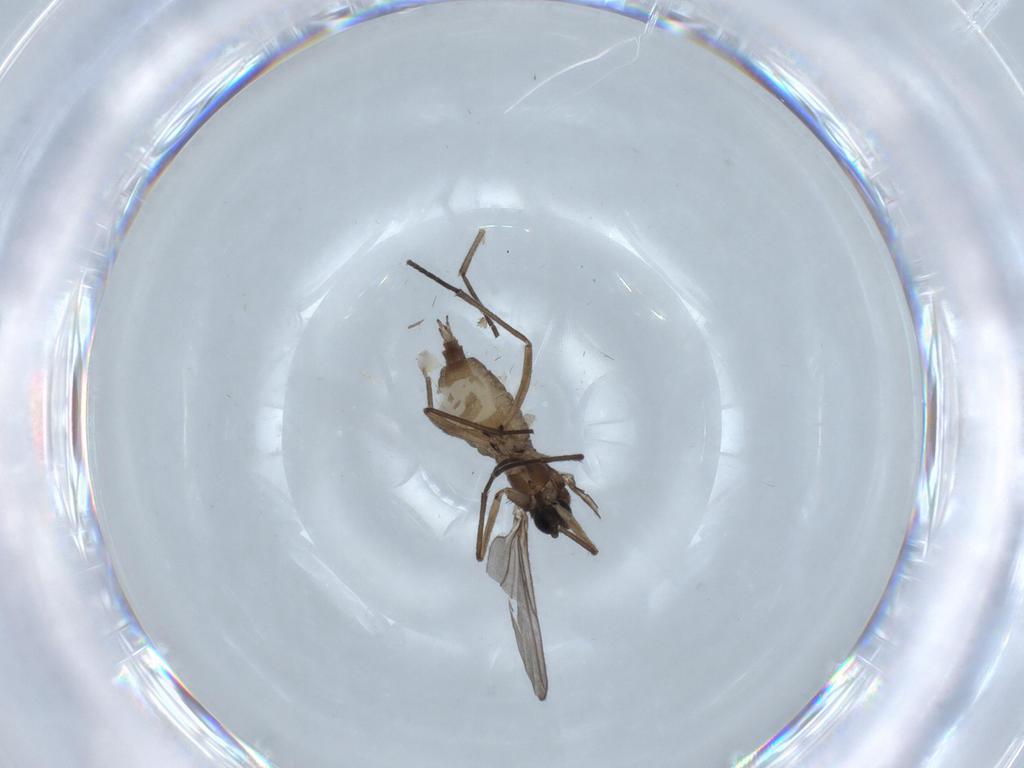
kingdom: Animalia
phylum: Arthropoda
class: Insecta
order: Diptera
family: Sciaridae
